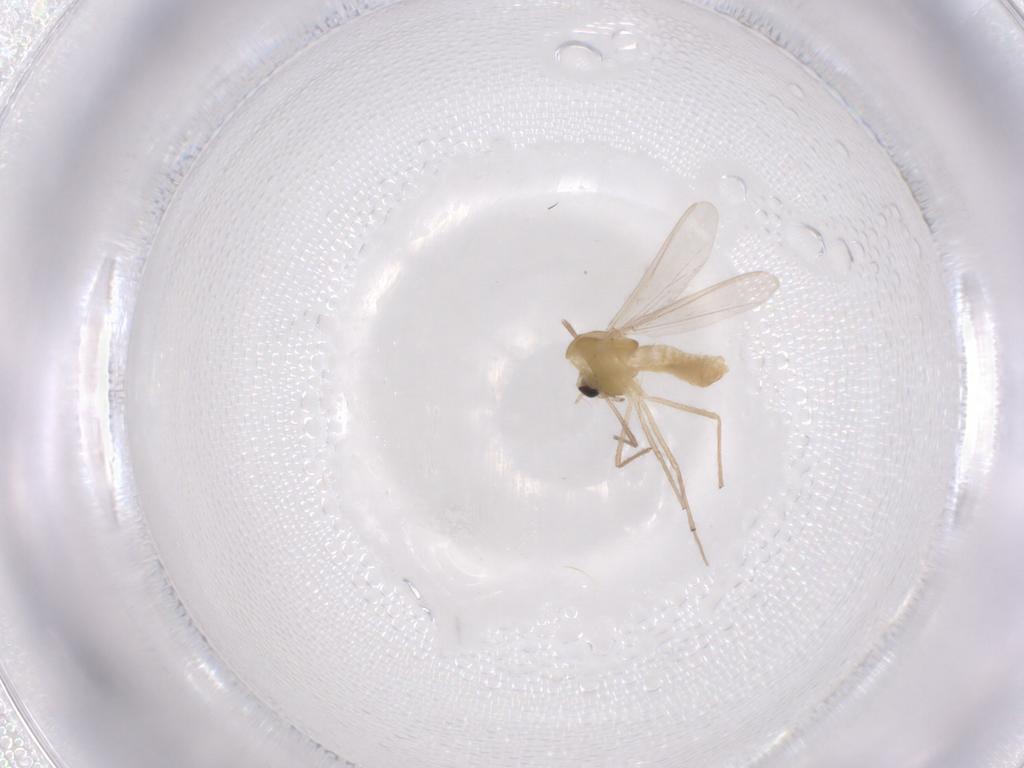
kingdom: Animalia
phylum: Arthropoda
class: Insecta
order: Diptera
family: Chironomidae
